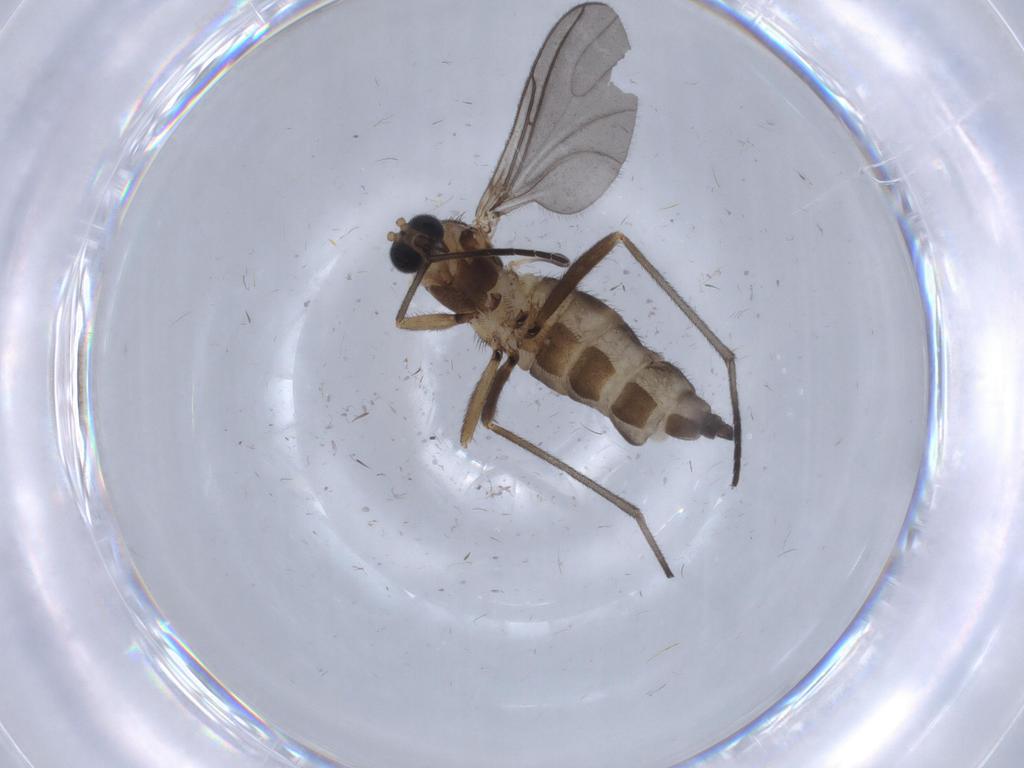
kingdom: Animalia
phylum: Arthropoda
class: Insecta
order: Diptera
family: Sciaridae
